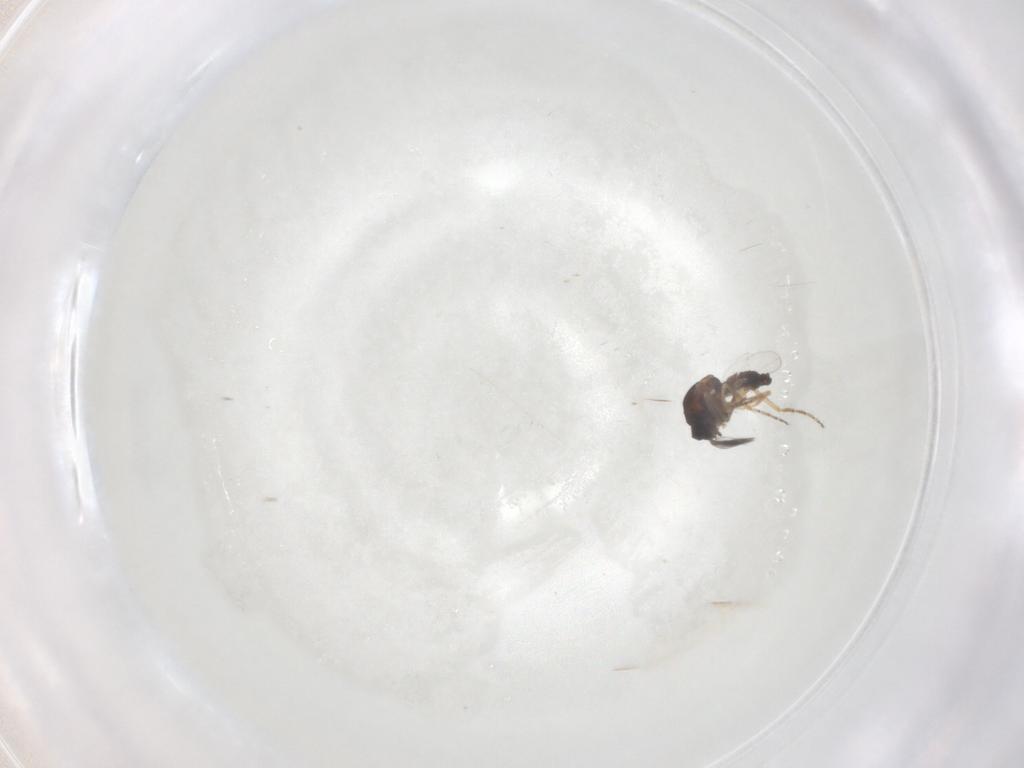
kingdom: Animalia
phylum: Arthropoda
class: Insecta
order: Diptera
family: Ceratopogonidae
